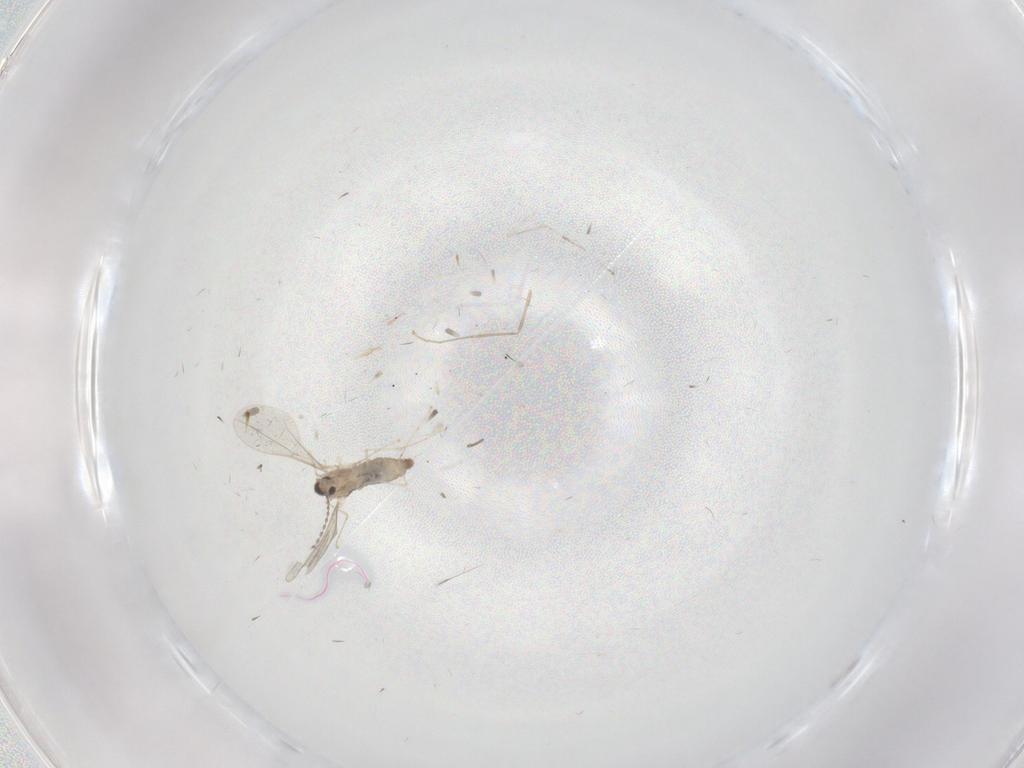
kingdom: Animalia
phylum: Arthropoda
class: Insecta
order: Diptera
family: Cecidomyiidae
